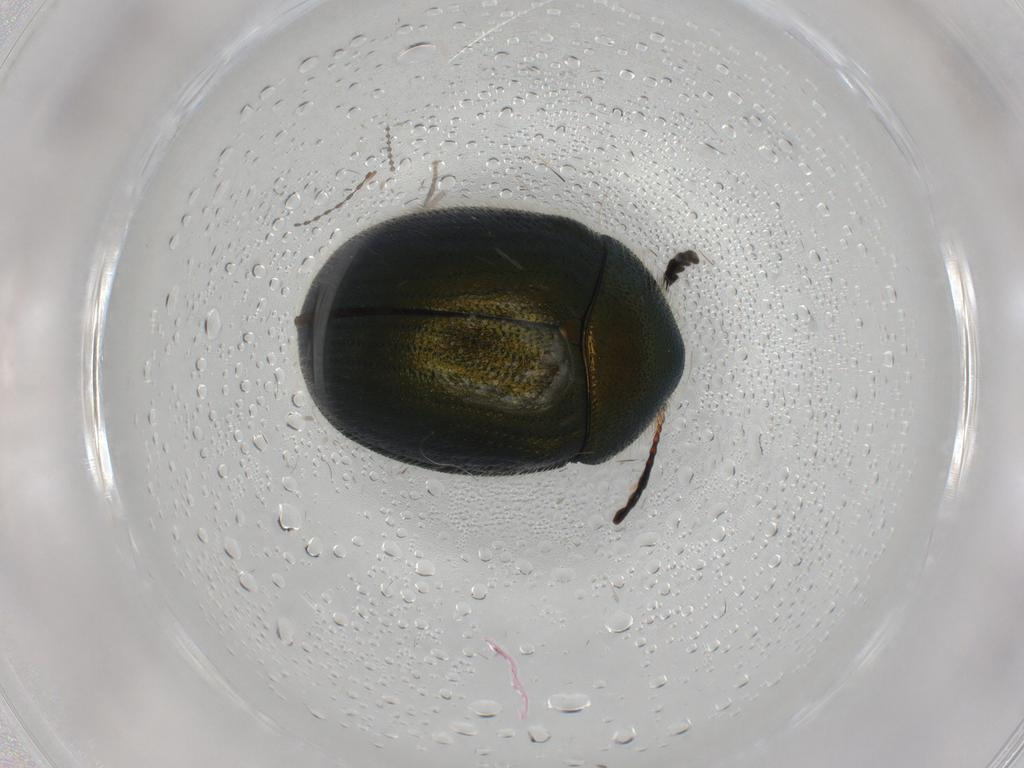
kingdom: Animalia
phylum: Arthropoda
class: Insecta
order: Coleoptera
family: Chrysomelidae
